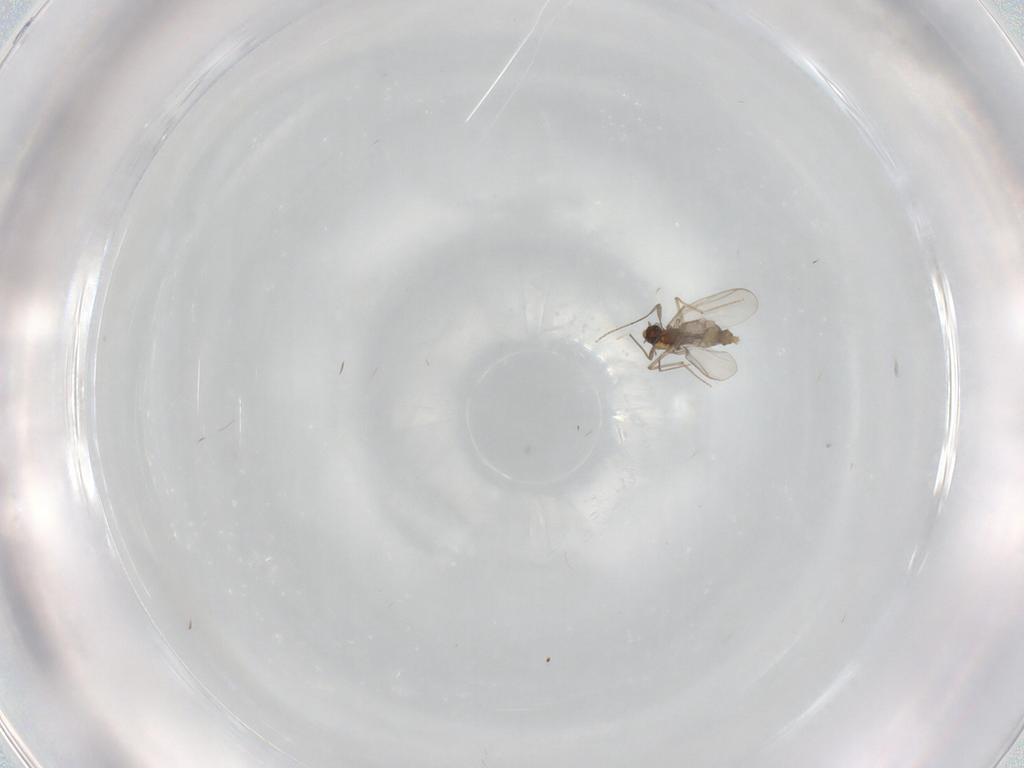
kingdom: Animalia
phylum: Arthropoda
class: Insecta
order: Diptera
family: Chironomidae
